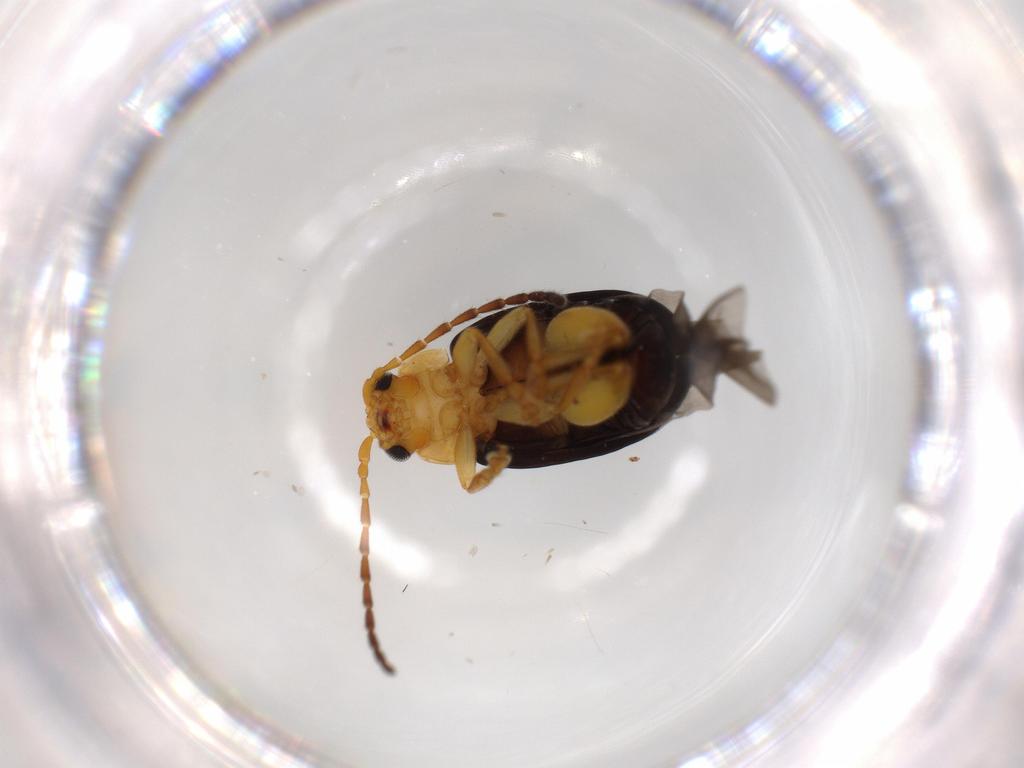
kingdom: Animalia
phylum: Arthropoda
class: Insecta
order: Coleoptera
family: Chrysomelidae
